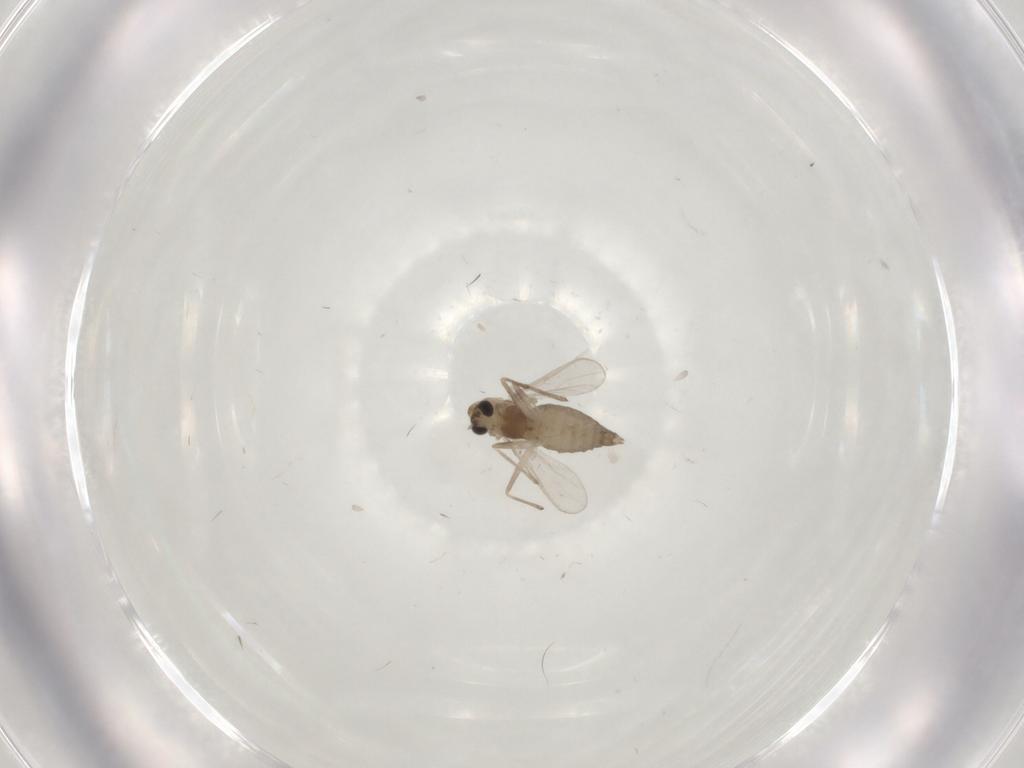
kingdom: Animalia
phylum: Arthropoda
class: Insecta
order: Diptera
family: Chironomidae
